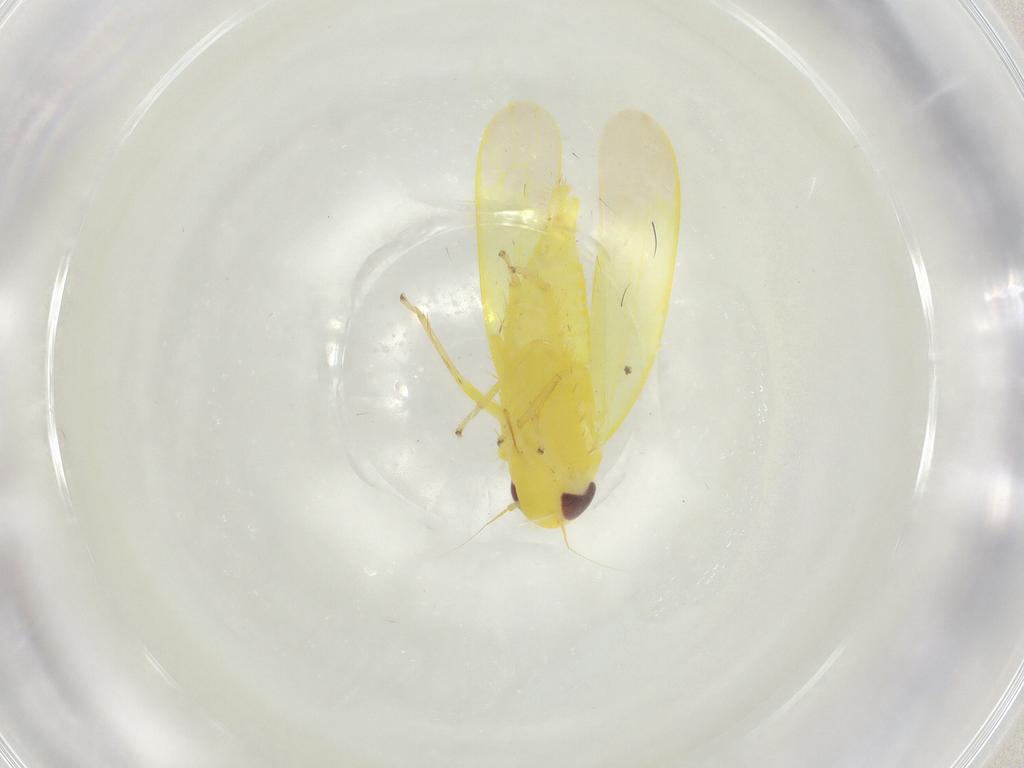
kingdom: Animalia
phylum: Arthropoda
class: Insecta
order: Hemiptera
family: Cicadellidae
